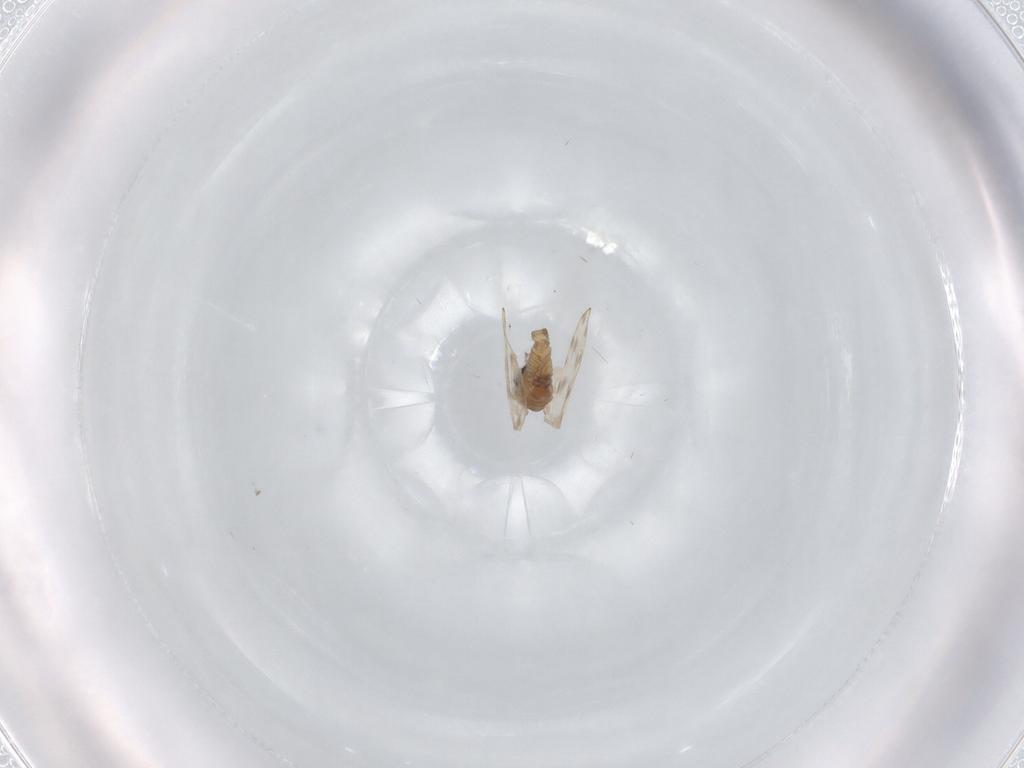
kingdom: Animalia
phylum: Arthropoda
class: Insecta
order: Diptera
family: Psychodidae
